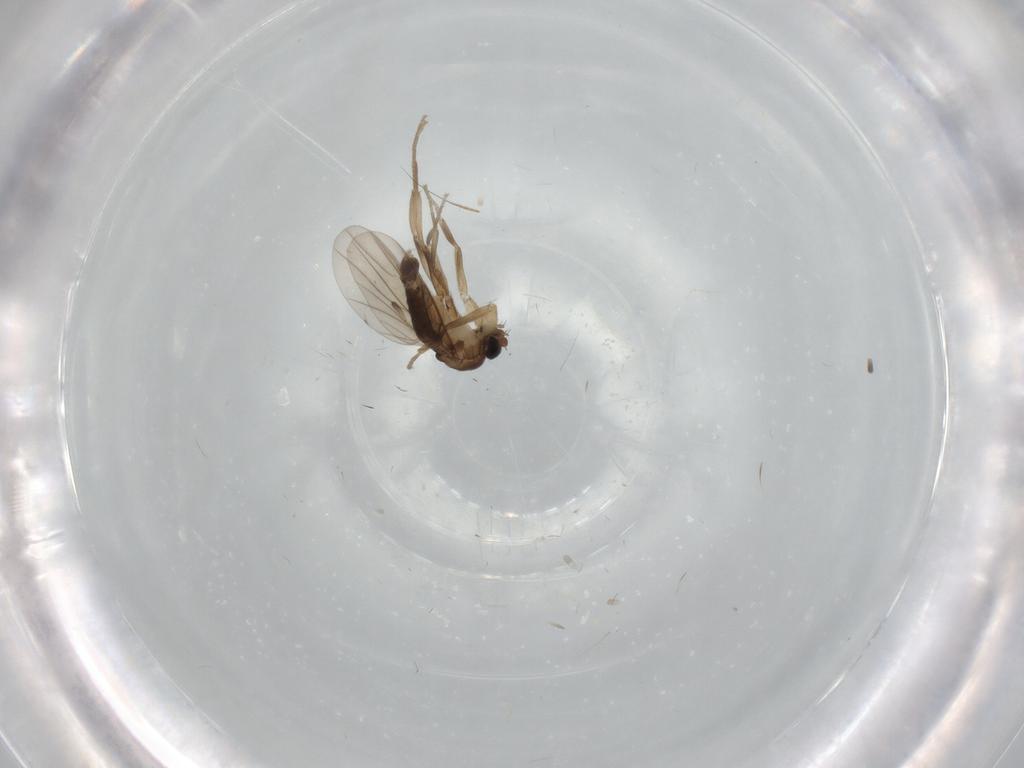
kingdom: Animalia
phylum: Arthropoda
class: Insecta
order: Diptera
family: Phoridae
